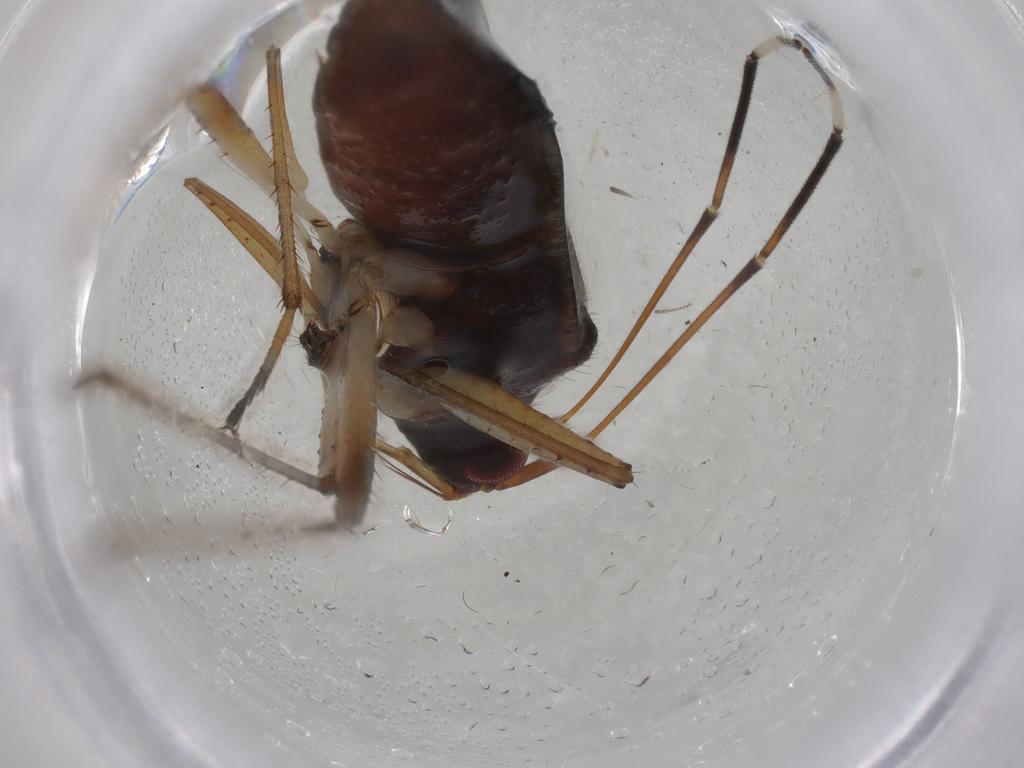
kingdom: Animalia
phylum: Arthropoda
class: Insecta
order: Hemiptera
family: Rhyparochromidae
